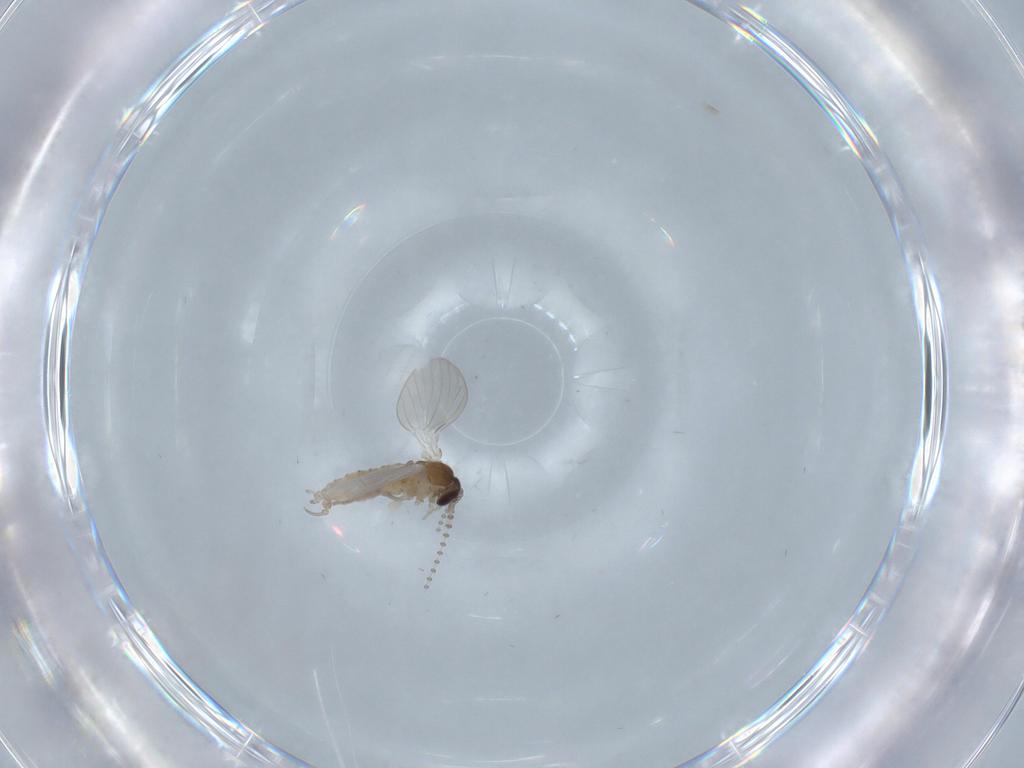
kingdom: Animalia
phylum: Arthropoda
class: Insecta
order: Diptera
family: Psychodidae
